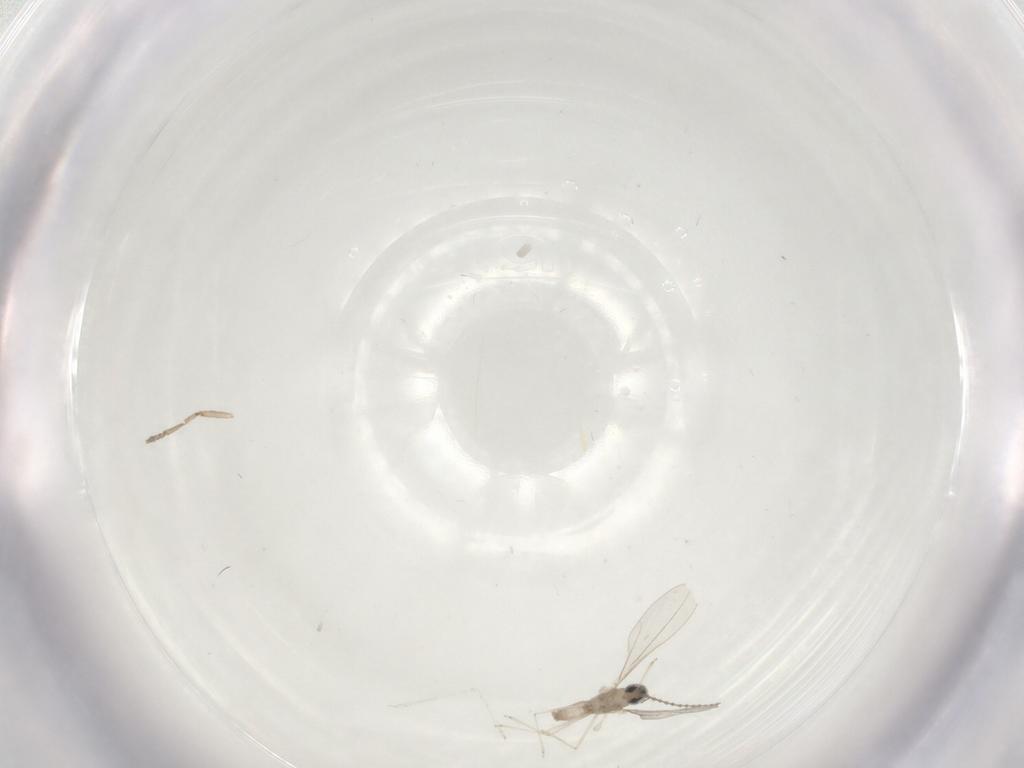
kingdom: Animalia
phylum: Arthropoda
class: Insecta
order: Diptera
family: Cecidomyiidae
